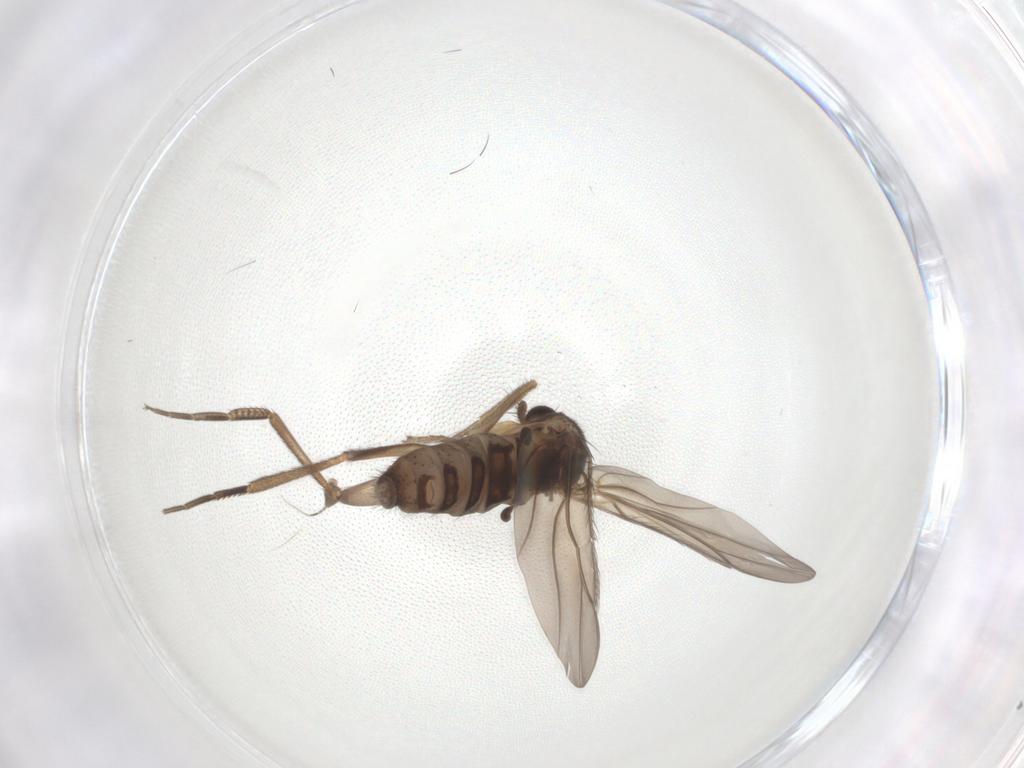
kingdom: Animalia
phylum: Arthropoda
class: Insecta
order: Diptera
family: Phoridae
